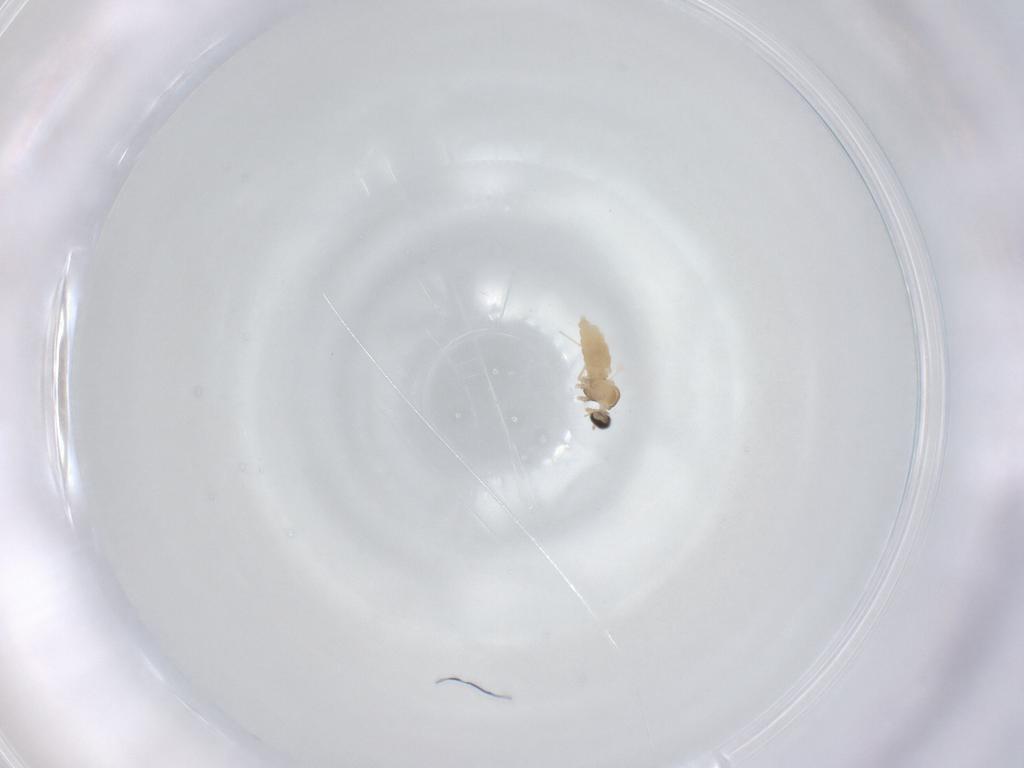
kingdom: Animalia
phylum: Arthropoda
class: Insecta
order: Diptera
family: Cecidomyiidae
